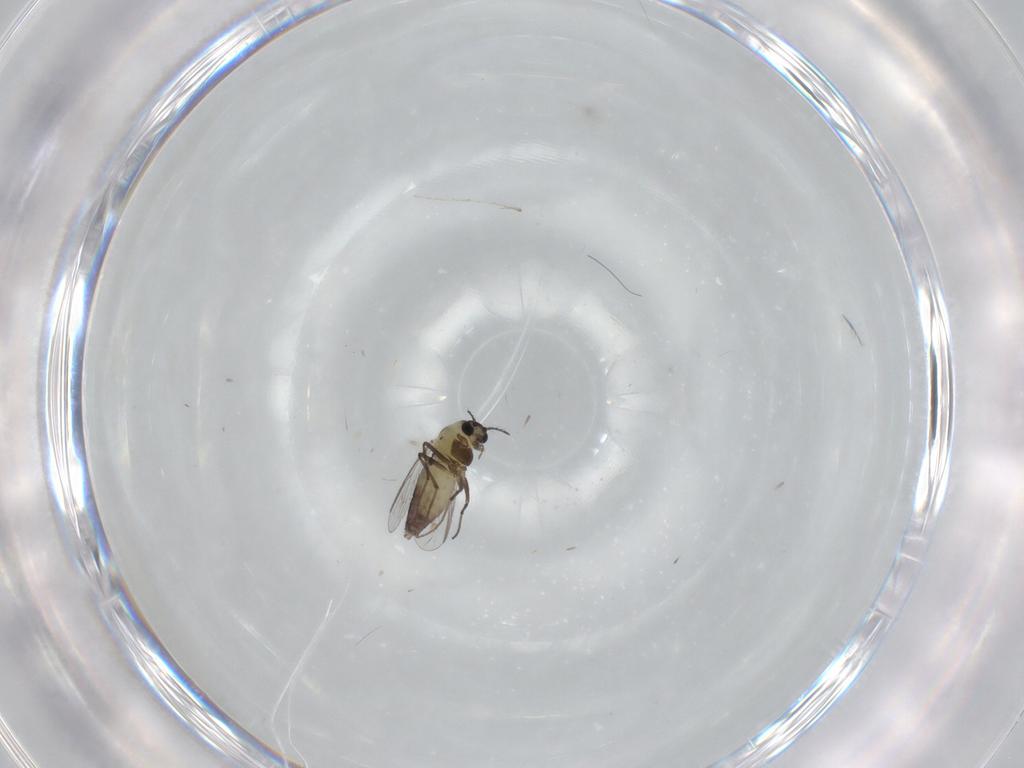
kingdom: Animalia
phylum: Arthropoda
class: Insecta
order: Diptera
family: Chironomidae
